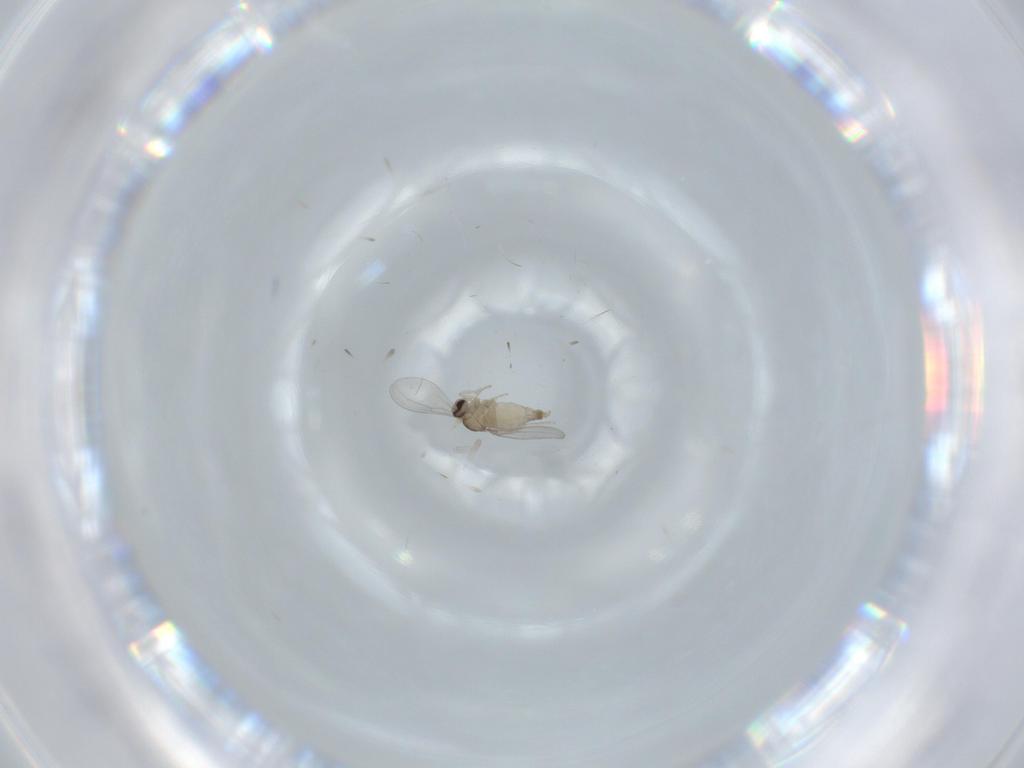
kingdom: Animalia
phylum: Arthropoda
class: Insecta
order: Diptera
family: Cecidomyiidae
